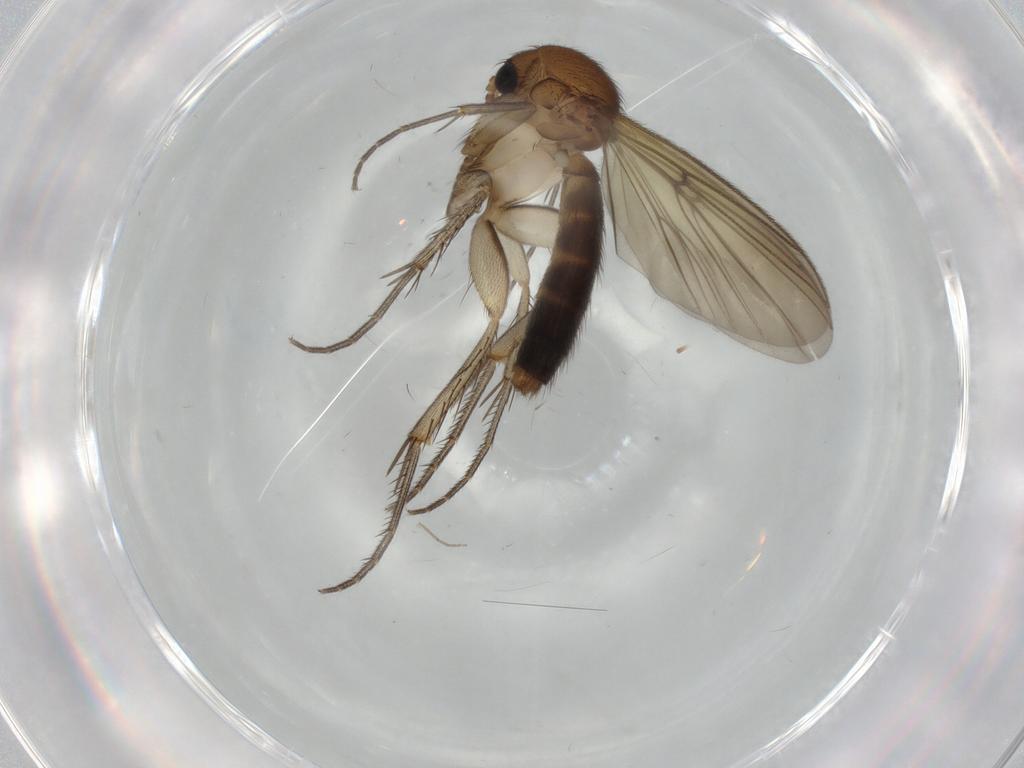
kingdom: Animalia
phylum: Arthropoda
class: Insecta
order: Diptera
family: Cecidomyiidae
